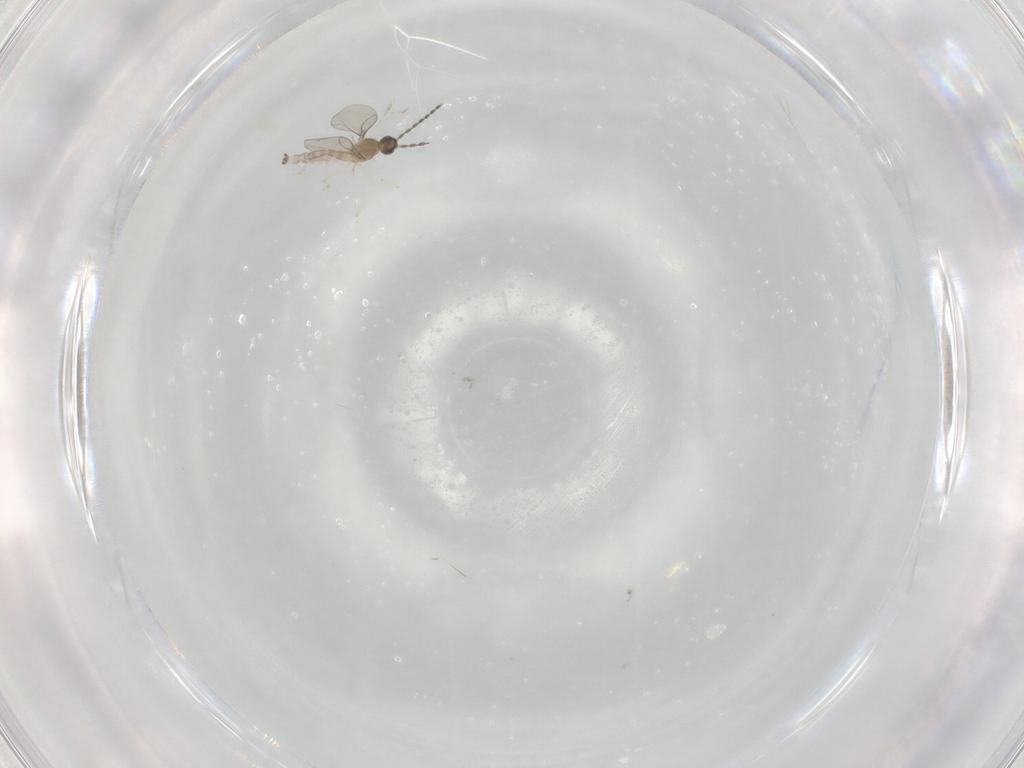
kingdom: Animalia
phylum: Arthropoda
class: Insecta
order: Diptera
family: Cecidomyiidae
